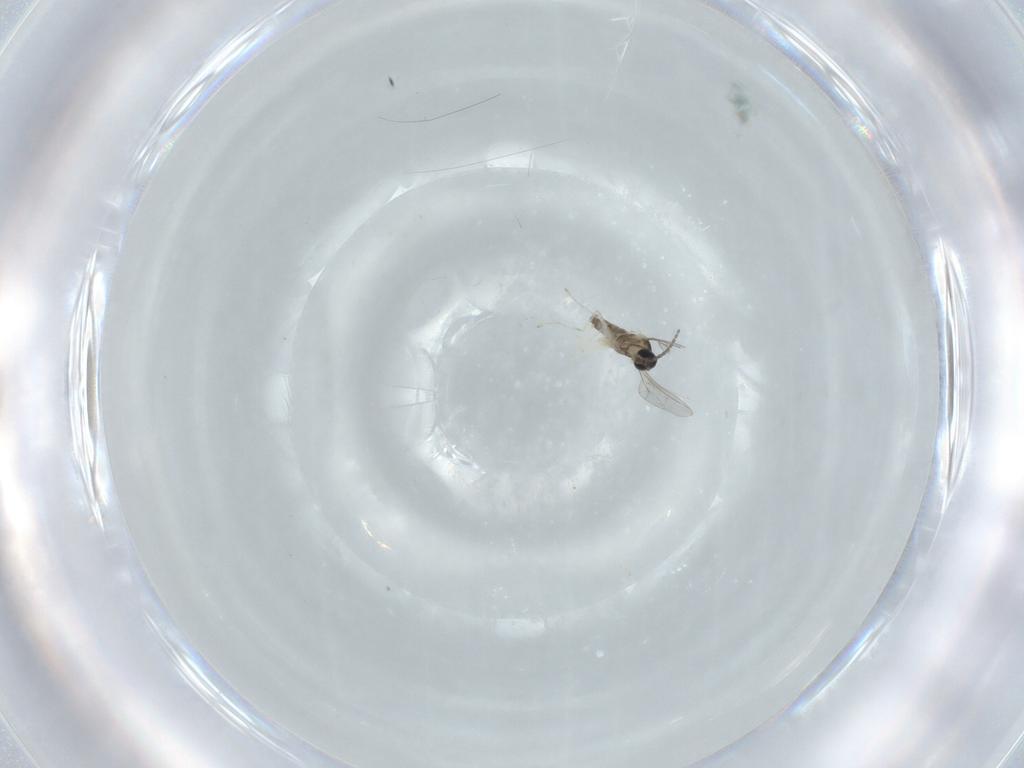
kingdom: Animalia
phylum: Arthropoda
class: Insecta
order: Diptera
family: Cecidomyiidae
